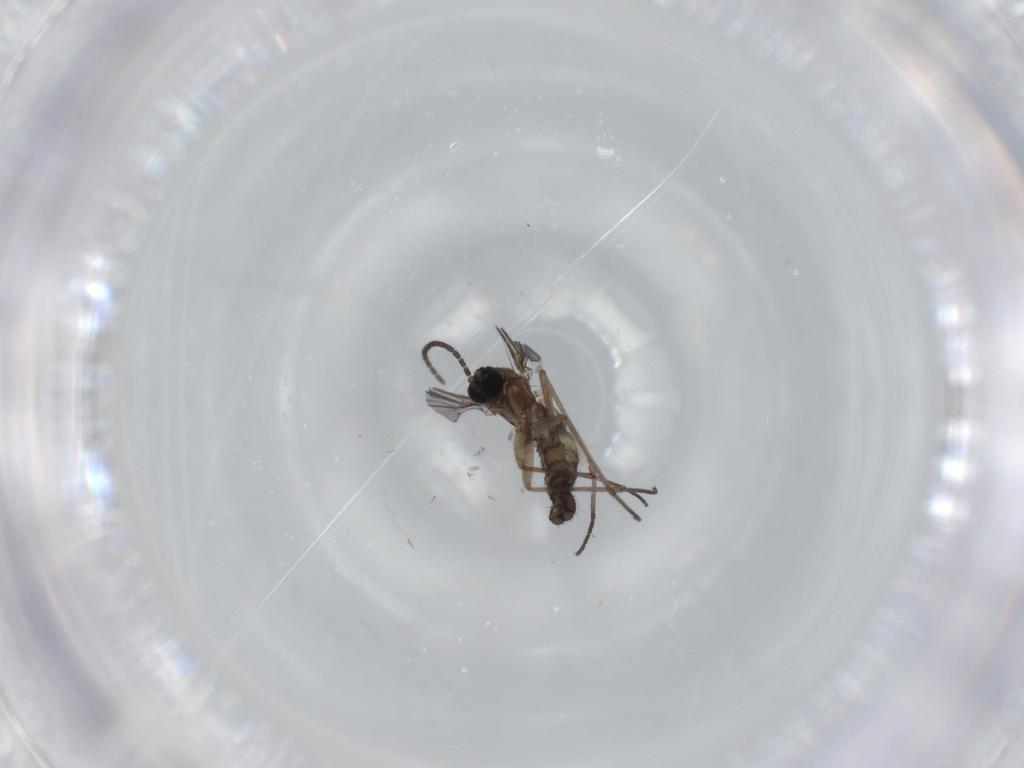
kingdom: Animalia
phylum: Arthropoda
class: Insecta
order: Diptera
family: Sciaridae
